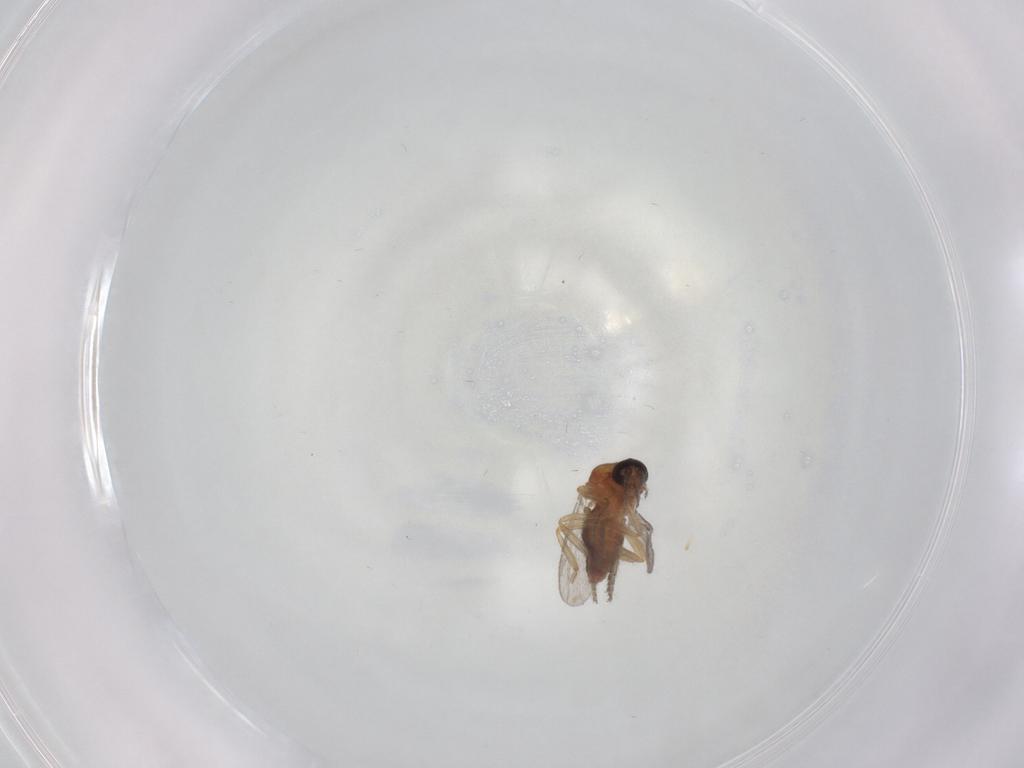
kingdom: Animalia
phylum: Arthropoda
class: Insecta
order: Diptera
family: Ceratopogonidae
